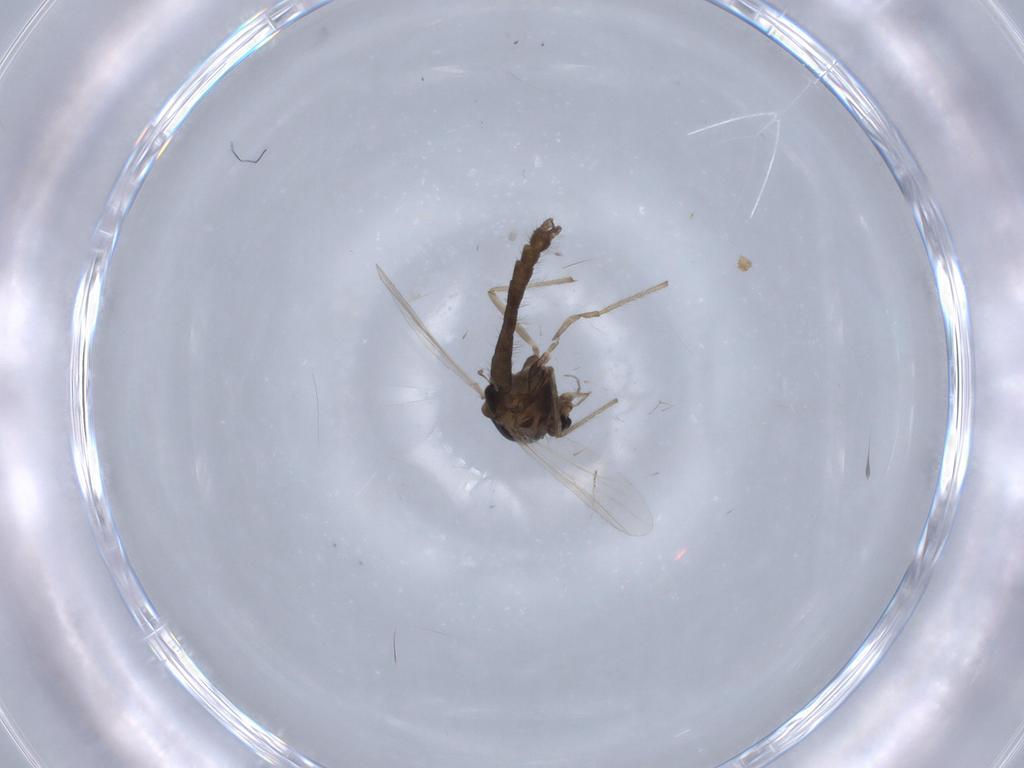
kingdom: Animalia
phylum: Arthropoda
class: Insecta
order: Diptera
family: Chironomidae
